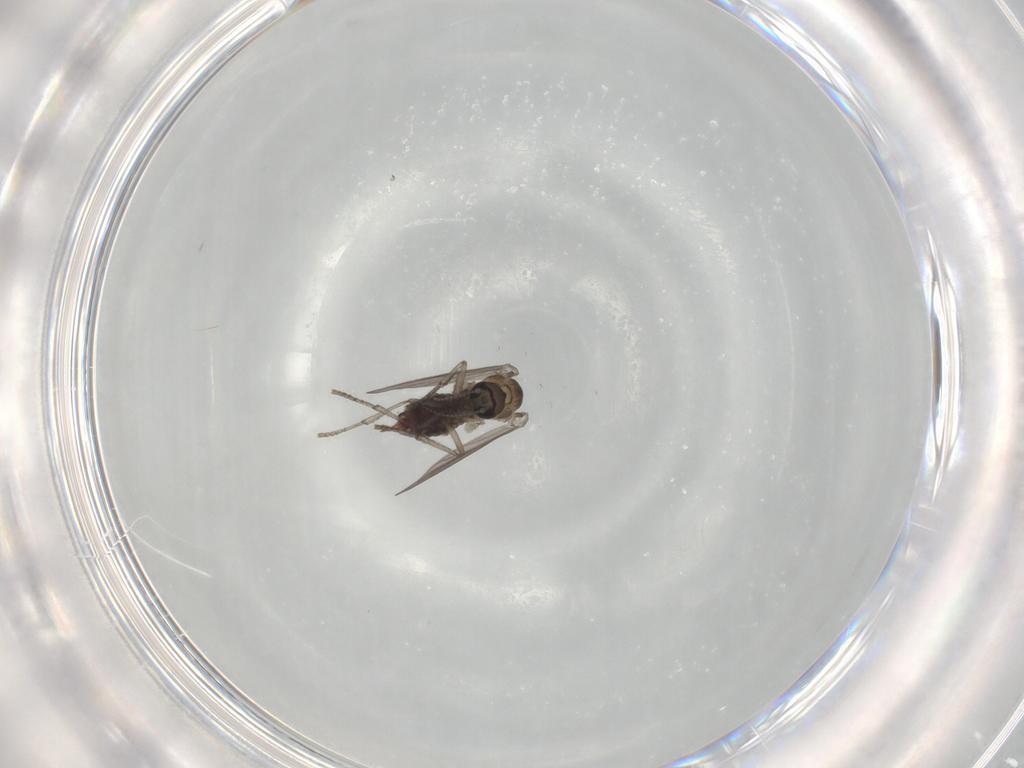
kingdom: Animalia
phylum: Arthropoda
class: Insecta
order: Diptera
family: Psychodidae
